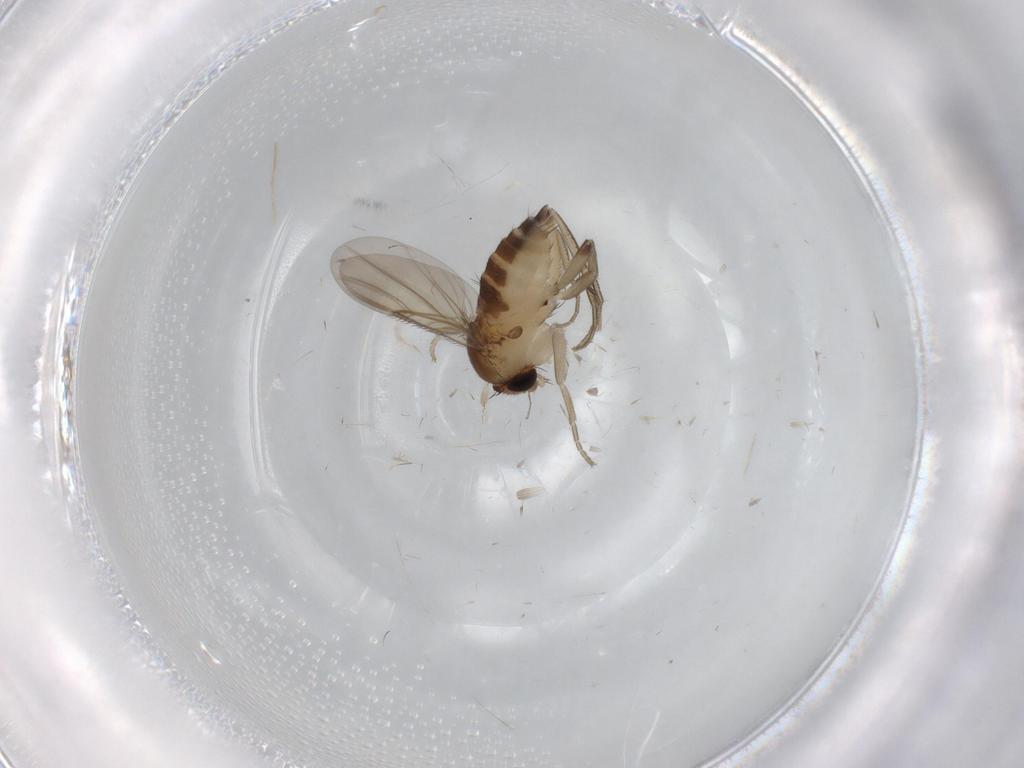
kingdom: Animalia
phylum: Arthropoda
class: Insecta
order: Diptera
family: Phoridae
